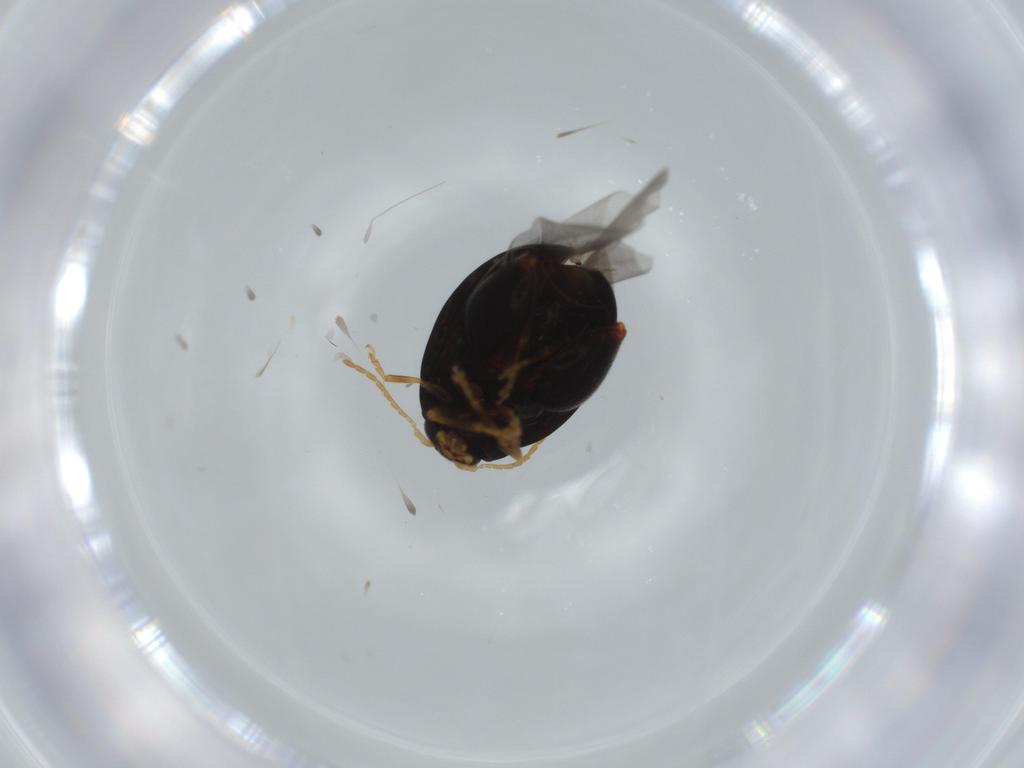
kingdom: Animalia
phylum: Arthropoda
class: Insecta
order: Coleoptera
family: Chrysomelidae
